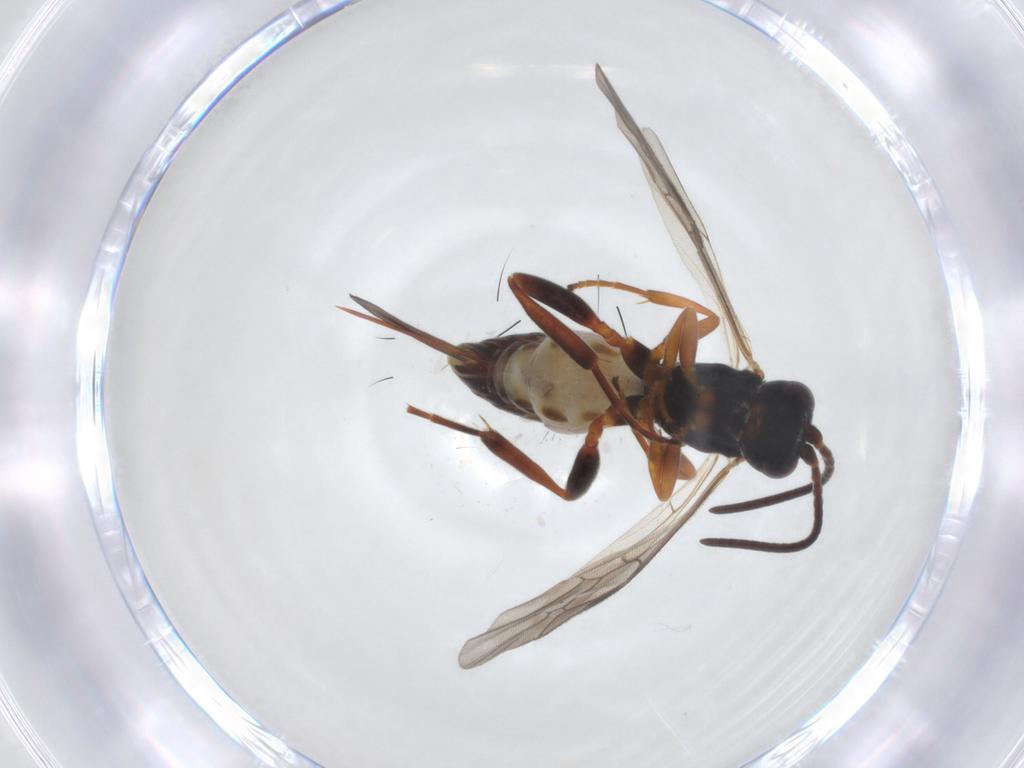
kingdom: Animalia
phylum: Arthropoda
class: Insecta
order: Hymenoptera
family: Ichneumonidae
